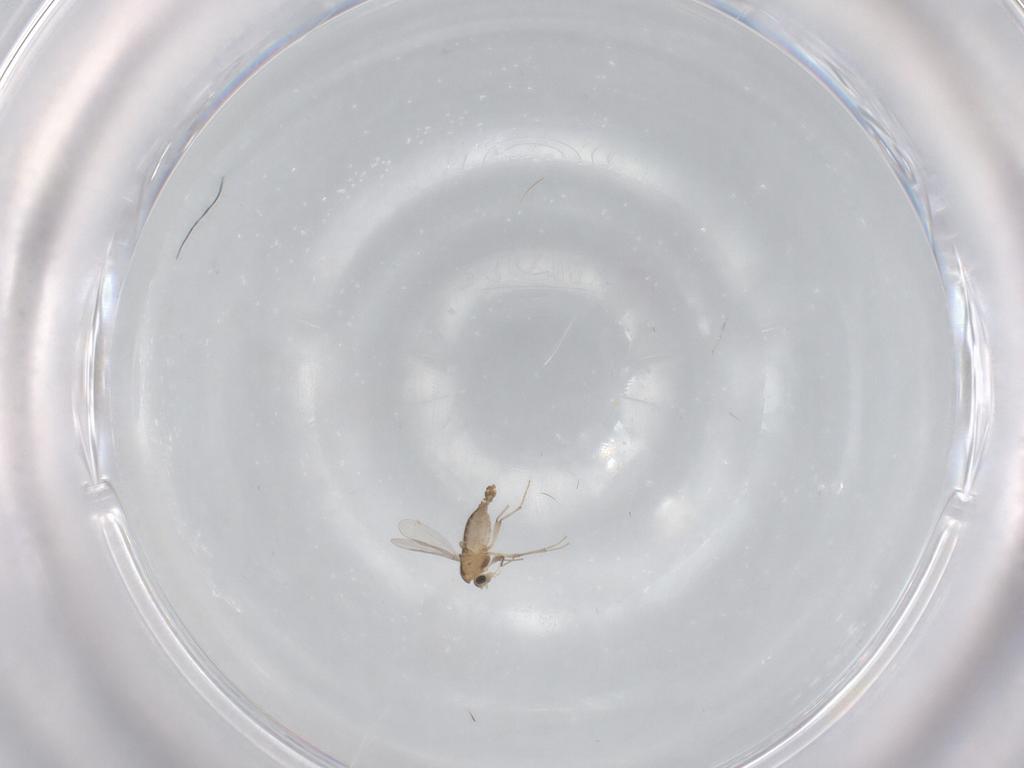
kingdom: Animalia
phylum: Arthropoda
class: Insecta
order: Diptera
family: Chironomidae
